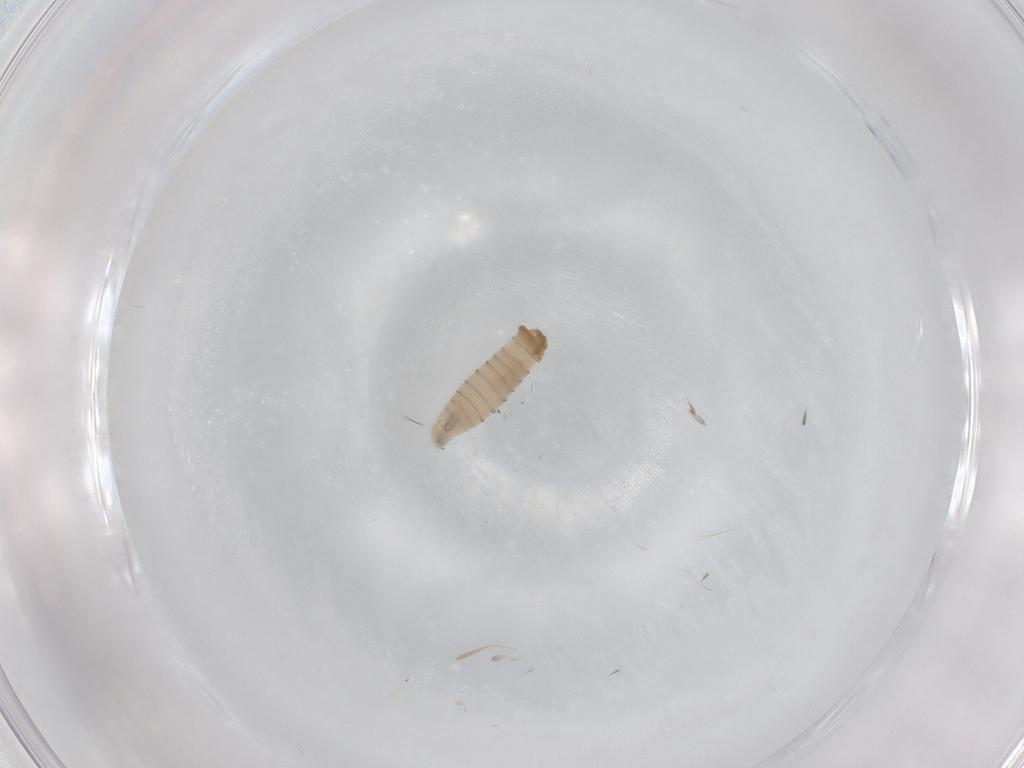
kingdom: Animalia
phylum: Arthropoda
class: Insecta
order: Diptera
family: Sarcophagidae
